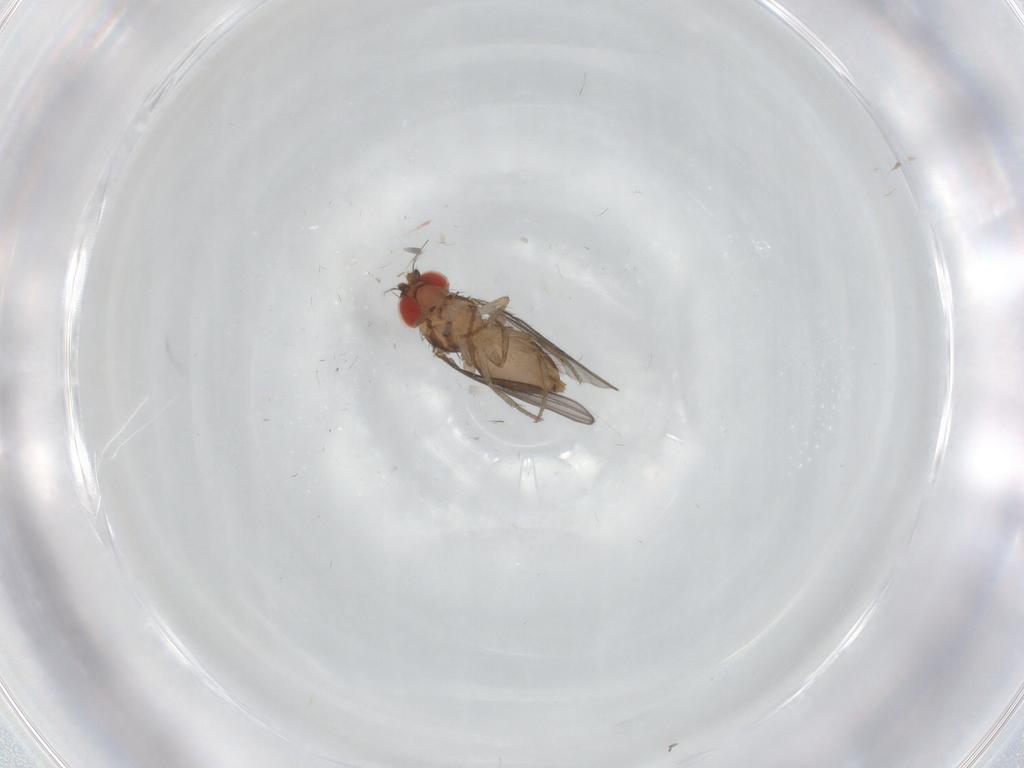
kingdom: Animalia
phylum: Arthropoda
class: Insecta
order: Diptera
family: Drosophilidae
